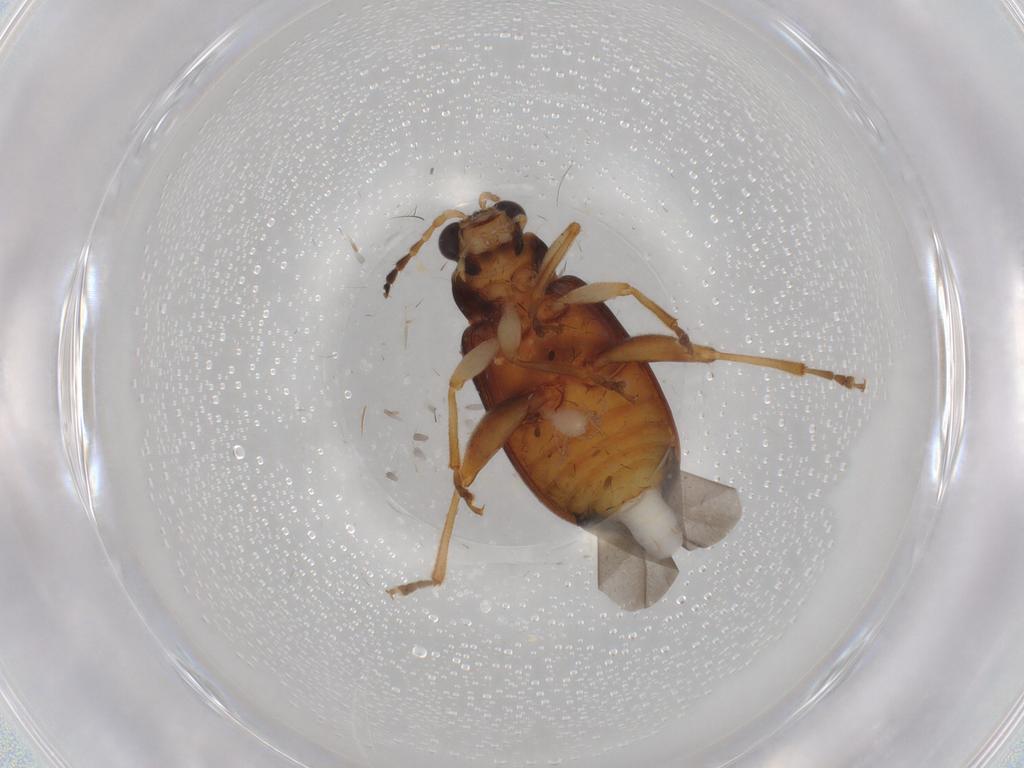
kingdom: Animalia
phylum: Arthropoda
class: Insecta
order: Coleoptera
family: Chrysomelidae
